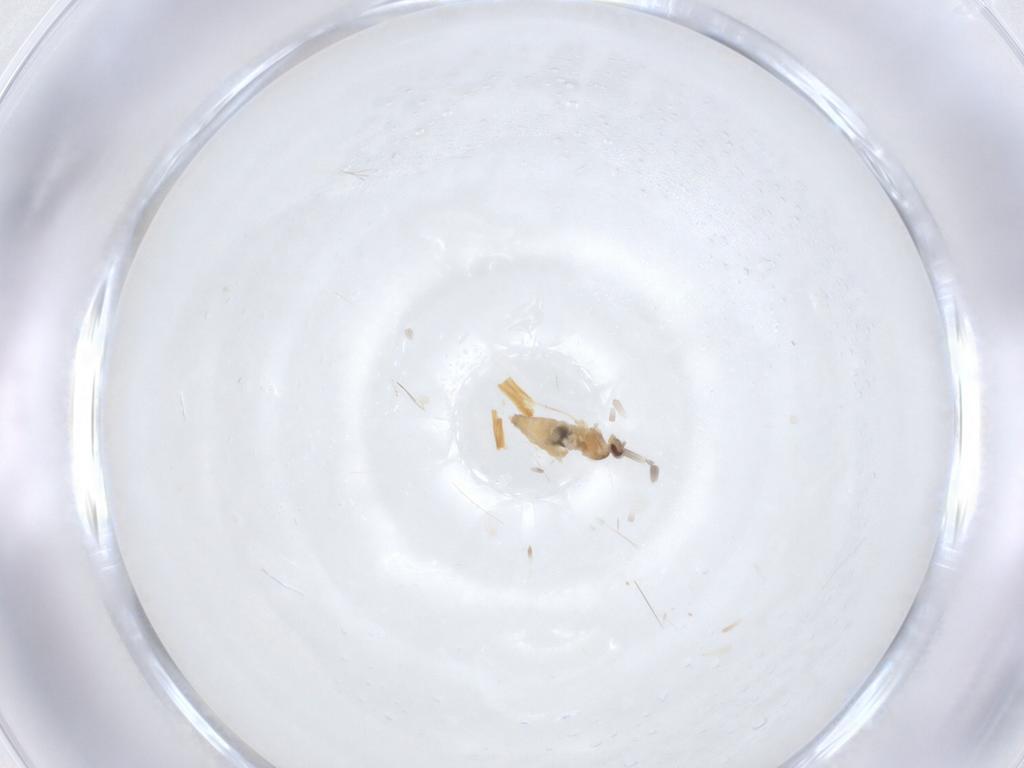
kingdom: Animalia
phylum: Arthropoda
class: Insecta
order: Diptera
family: Cecidomyiidae
